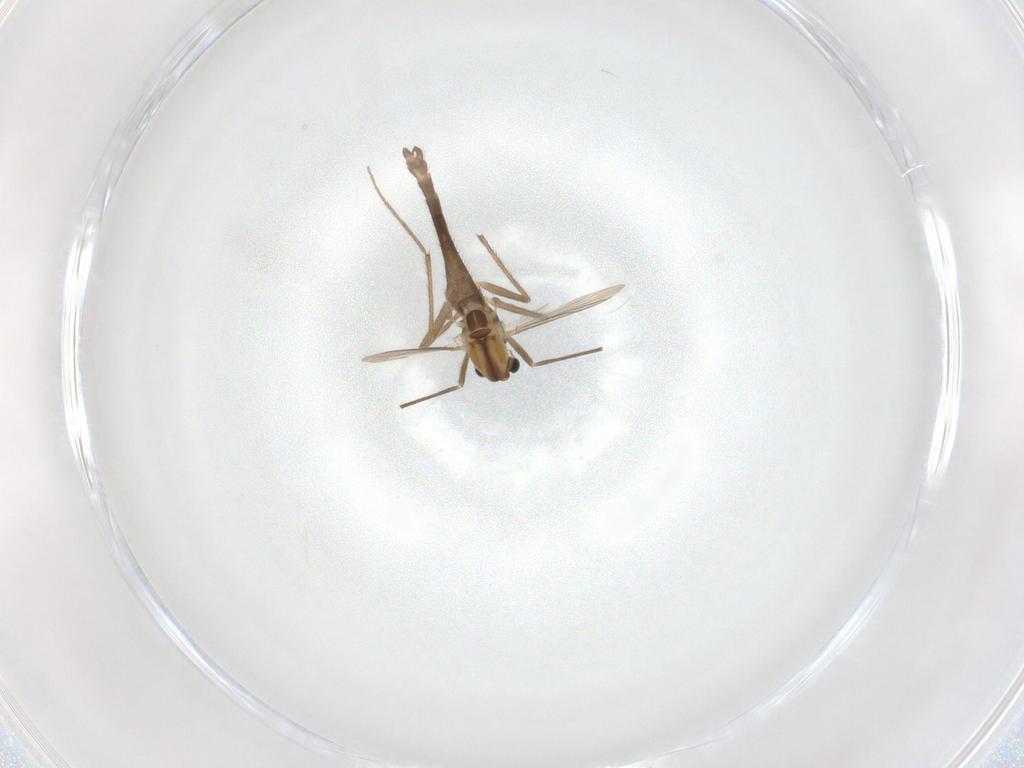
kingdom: Animalia
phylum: Arthropoda
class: Insecta
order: Diptera
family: Chironomidae
